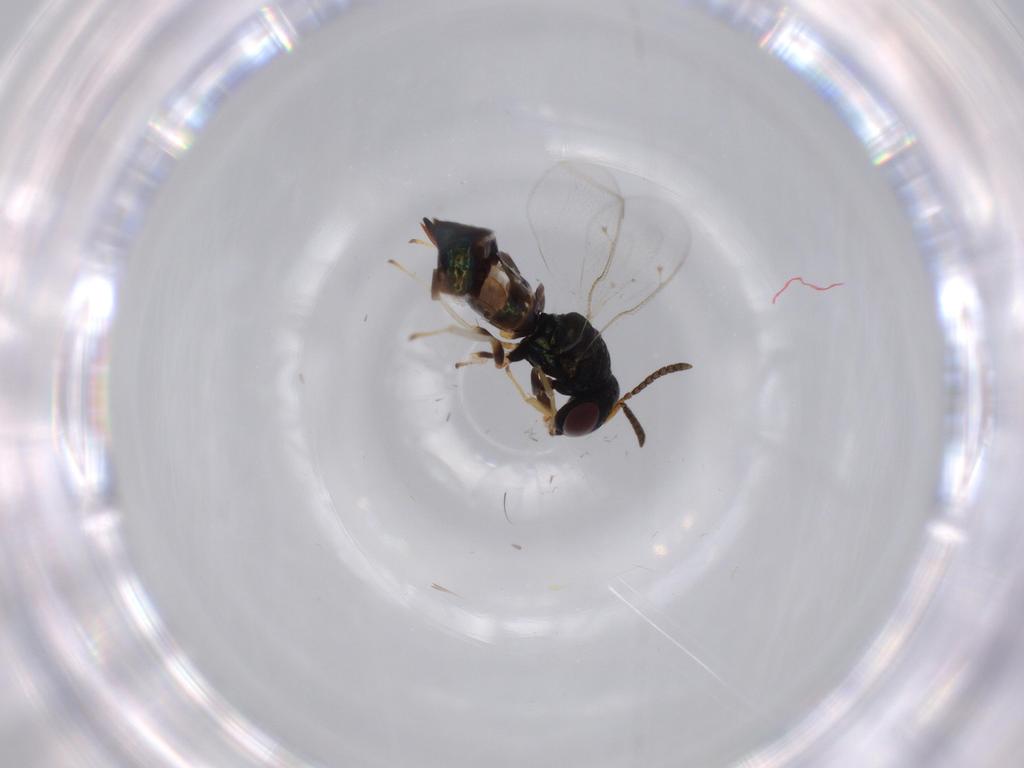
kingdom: Animalia
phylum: Arthropoda
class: Insecta
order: Hymenoptera
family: Pteromalidae
